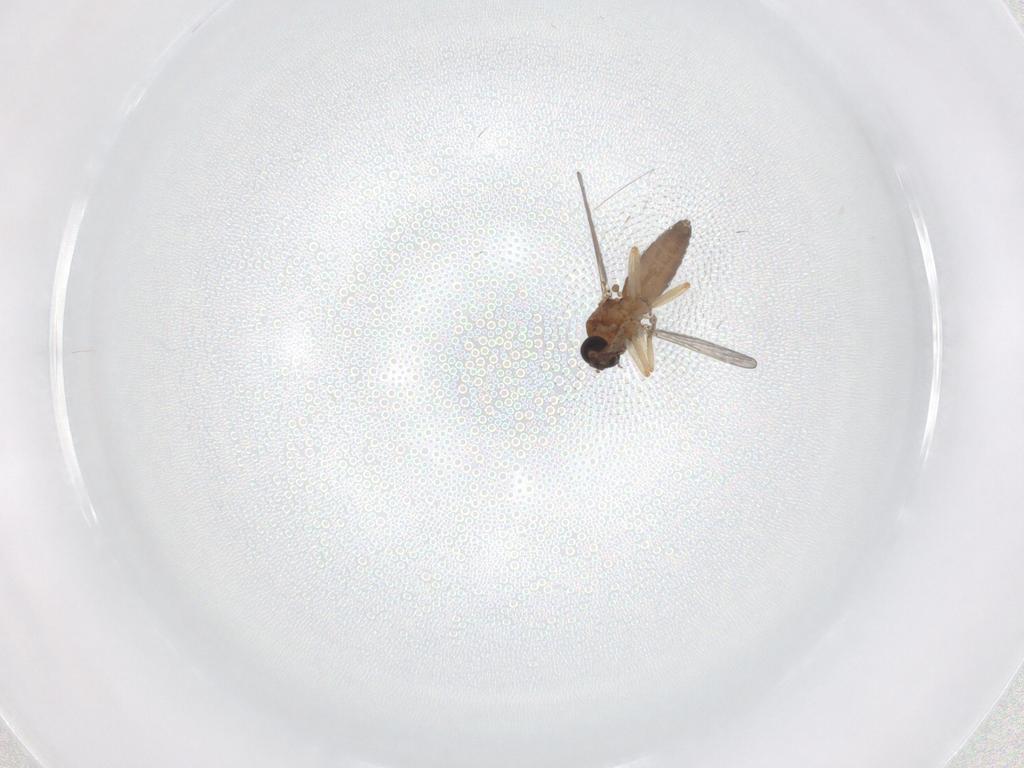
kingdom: Animalia
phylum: Arthropoda
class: Insecta
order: Diptera
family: Ceratopogonidae
